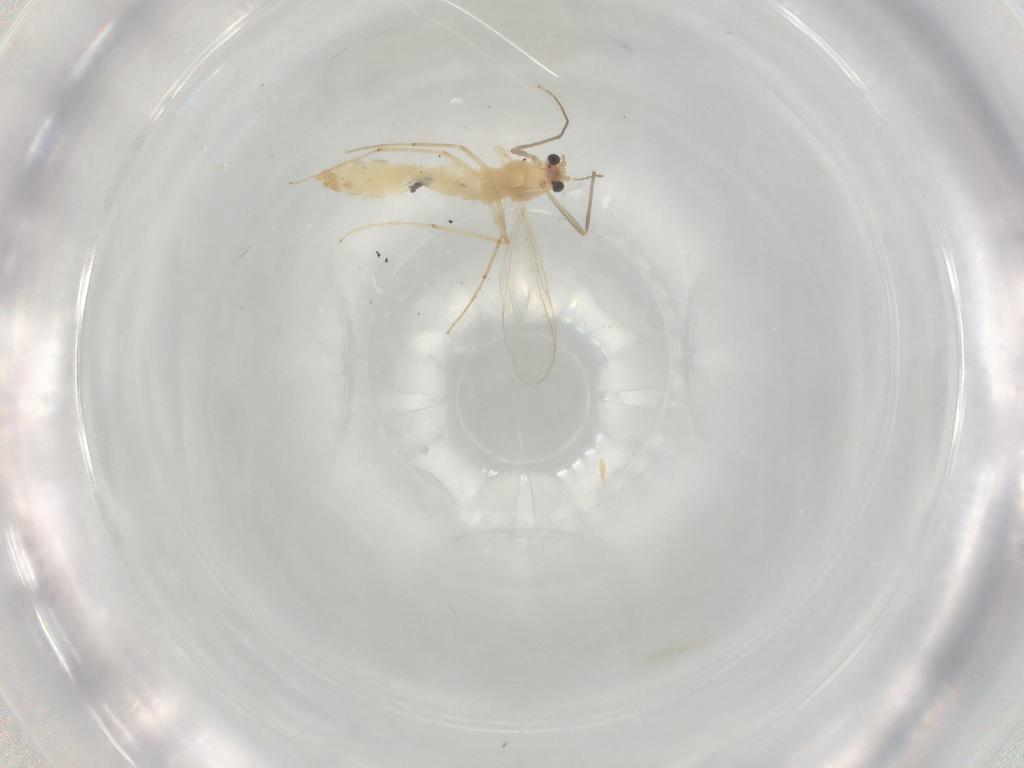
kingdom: Animalia
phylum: Arthropoda
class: Insecta
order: Diptera
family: Chironomidae
